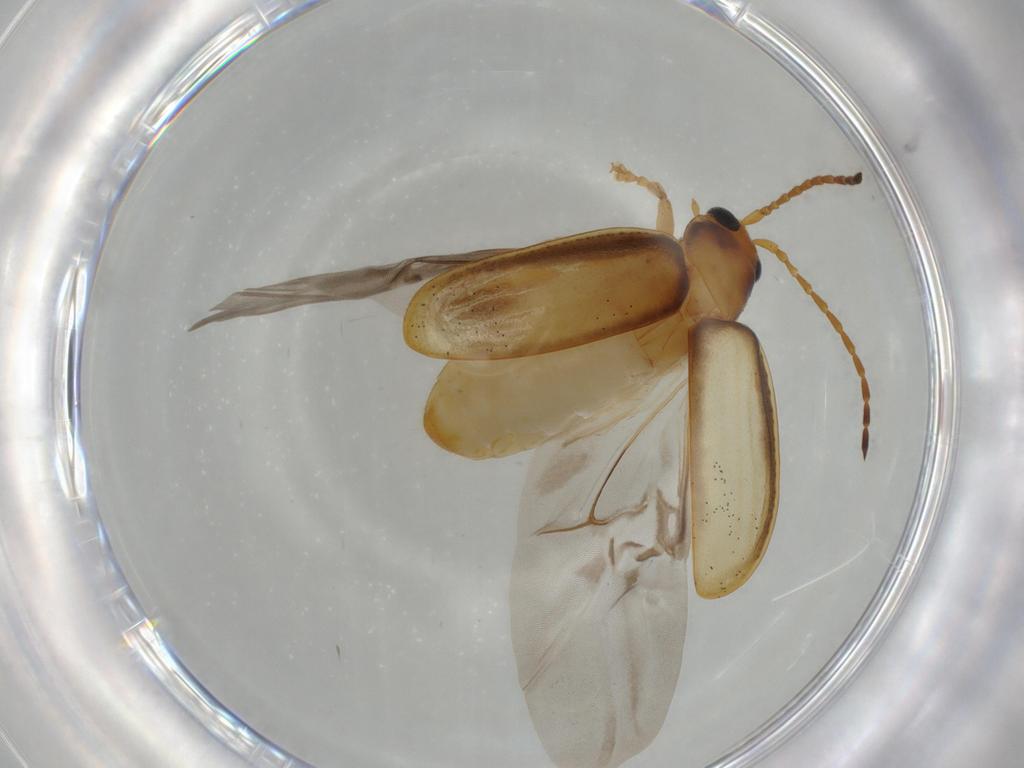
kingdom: Animalia
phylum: Arthropoda
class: Insecta
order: Coleoptera
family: Chrysomelidae
